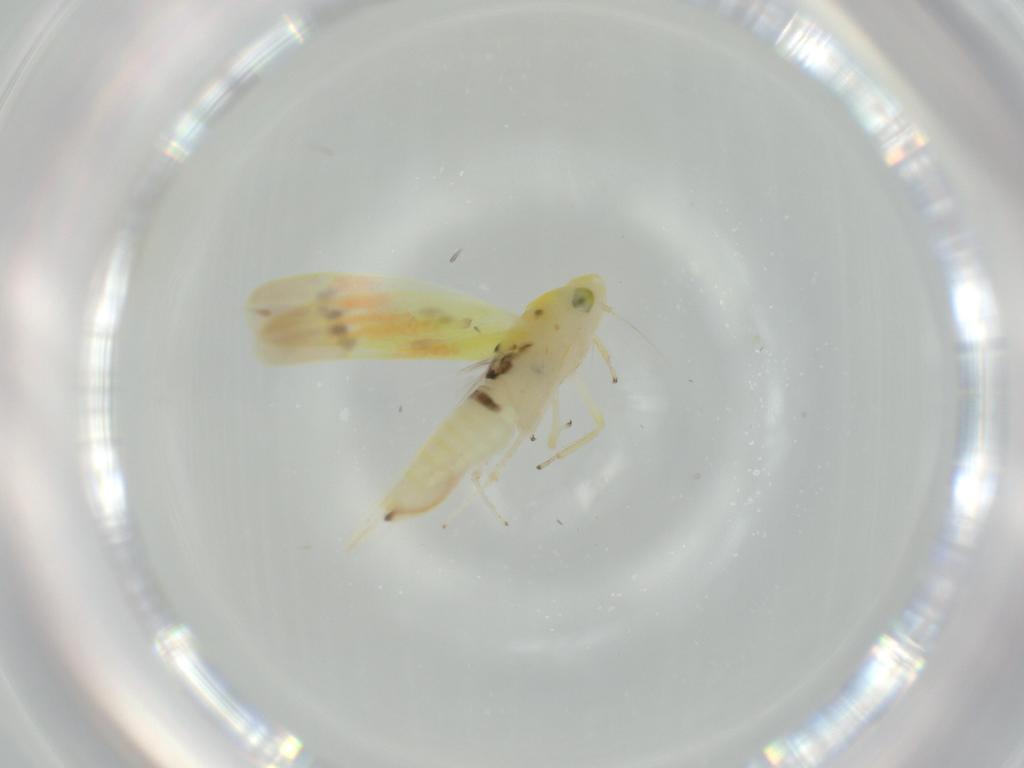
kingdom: Animalia
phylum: Arthropoda
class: Insecta
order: Hemiptera
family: Cicadellidae
